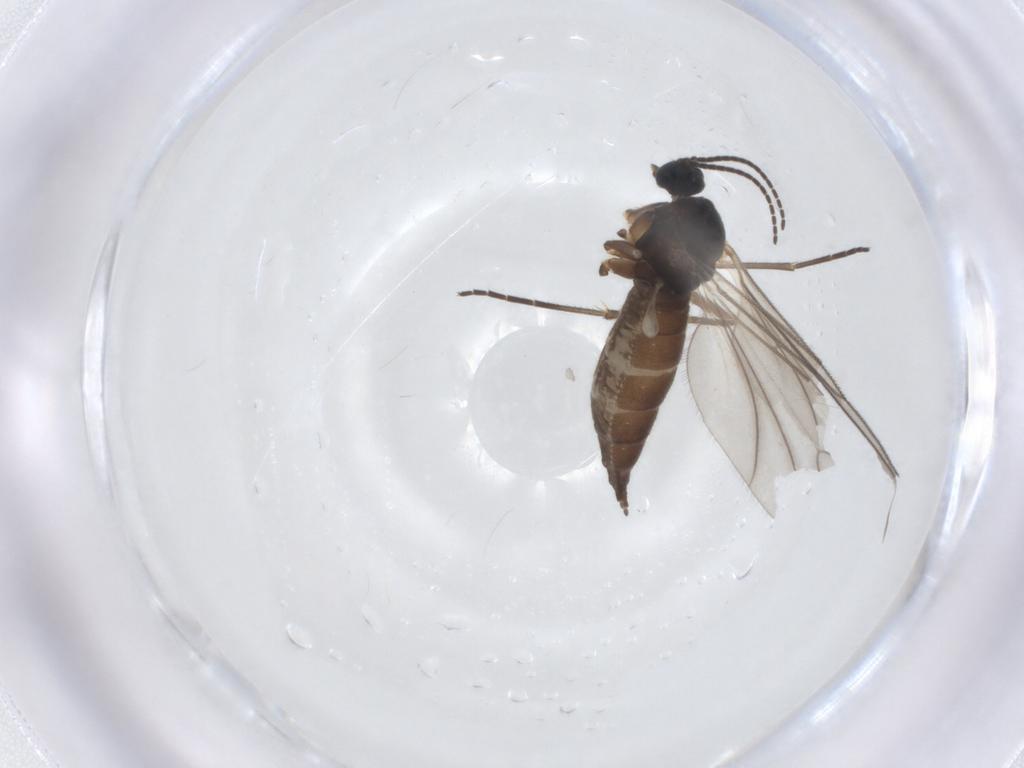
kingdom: Animalia
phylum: Arthropoda
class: Insecta
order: Diptera
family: Sciaridae
